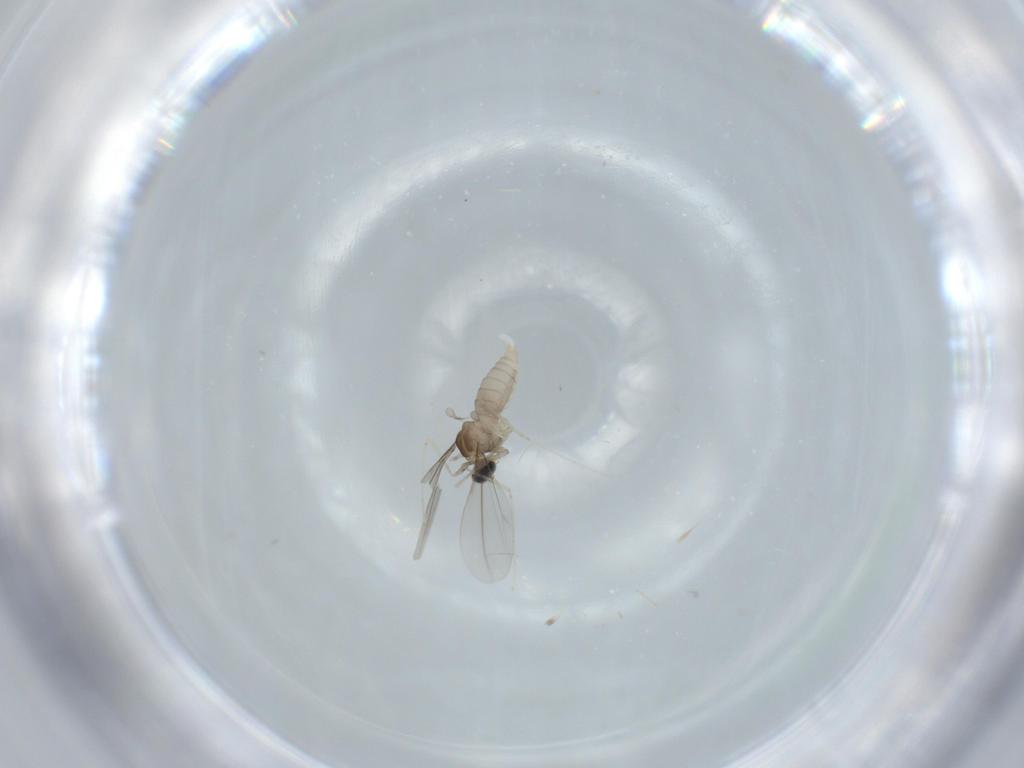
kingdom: Animalia
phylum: Arthropoda
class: Insecta
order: Diptera
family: Cecidomyiidae
